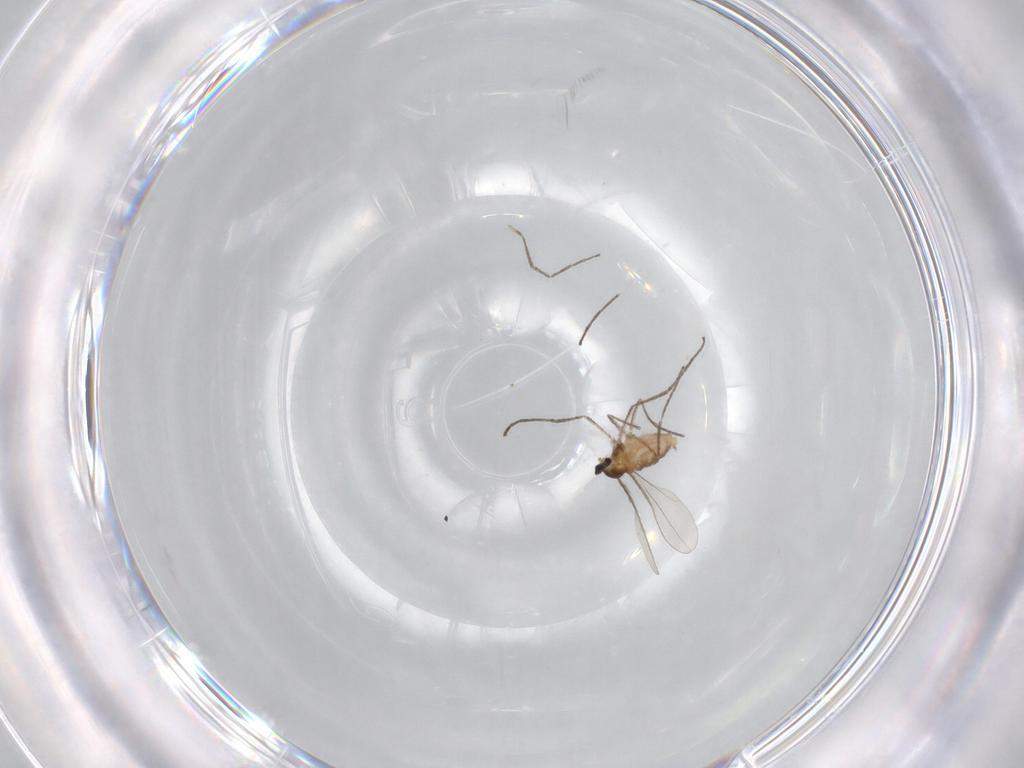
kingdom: Animalia
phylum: Arthropoda
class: Insecta
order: Diptera
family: Cecidomyiidae
